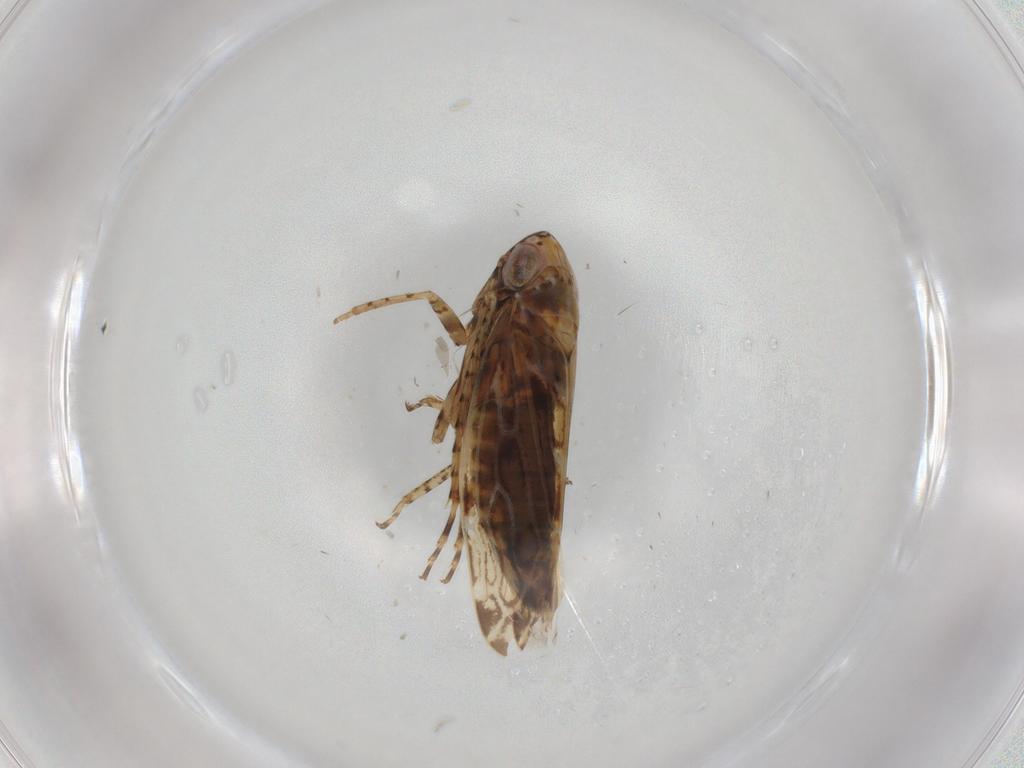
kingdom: Animalia
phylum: Arthropoda
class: Insecta
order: Hemiptera
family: Cicadellidae
